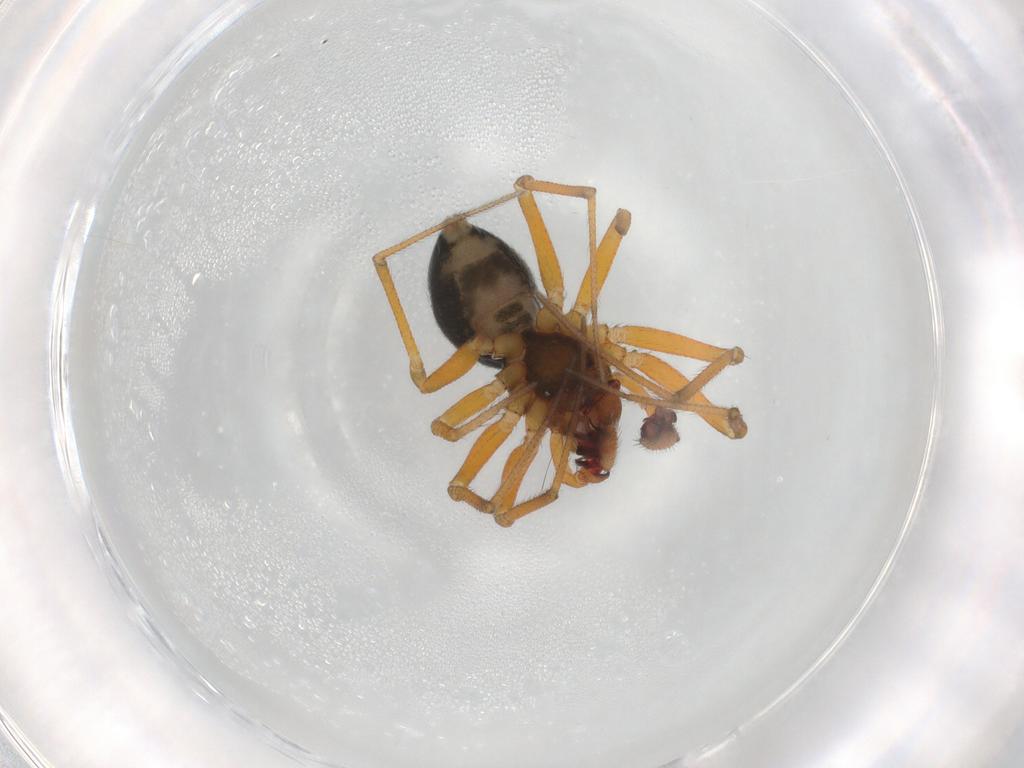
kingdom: Animalia
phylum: Arthropoda
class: Arachnida
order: Araneae
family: Linyphiidae
